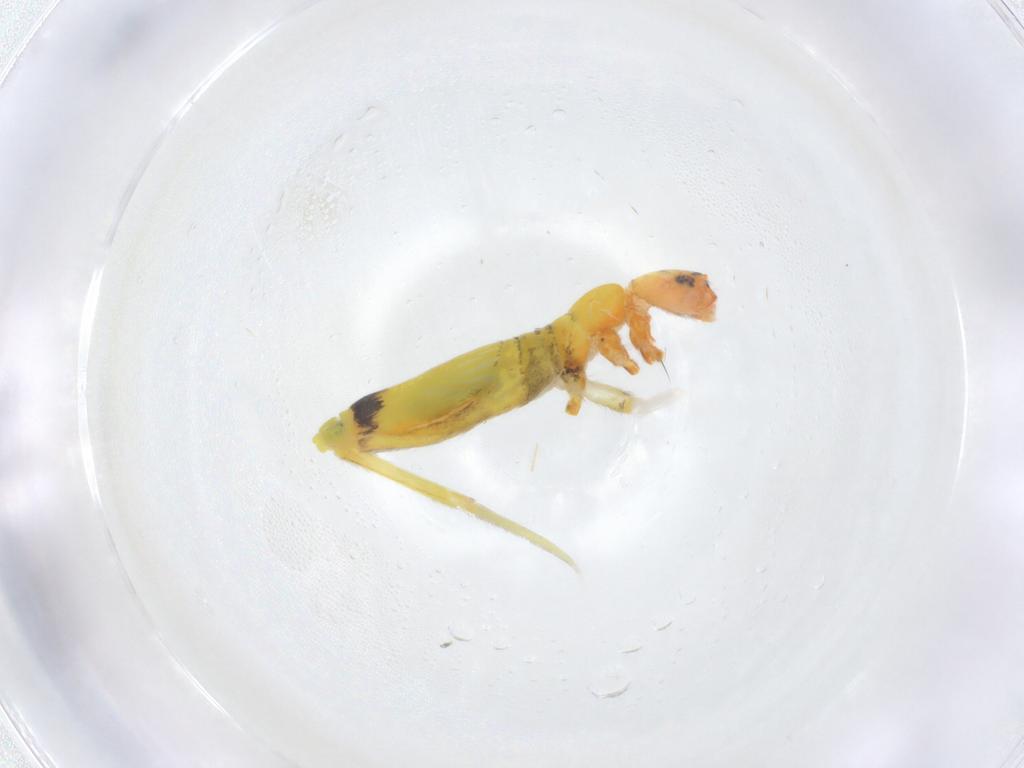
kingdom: Animalia
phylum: Arthropoda
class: Collembola
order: Entomobryomorpha
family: Entomobryidae
